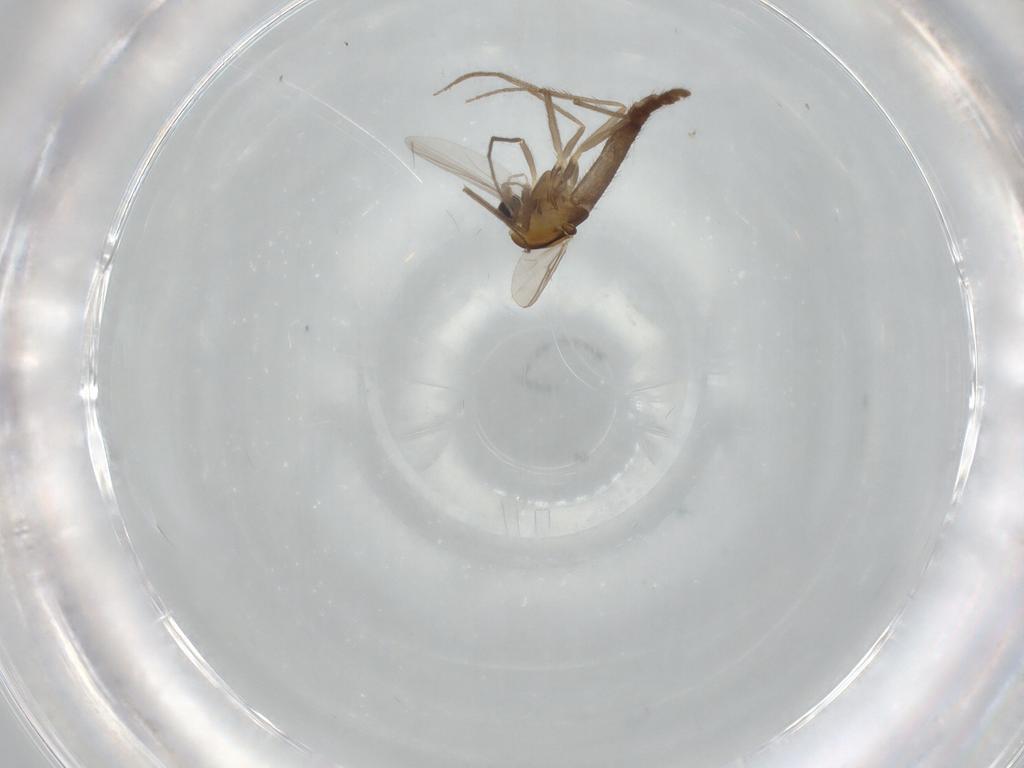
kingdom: Animalia
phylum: Arthropoda
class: Insecta
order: Diptera
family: Chironomidae
